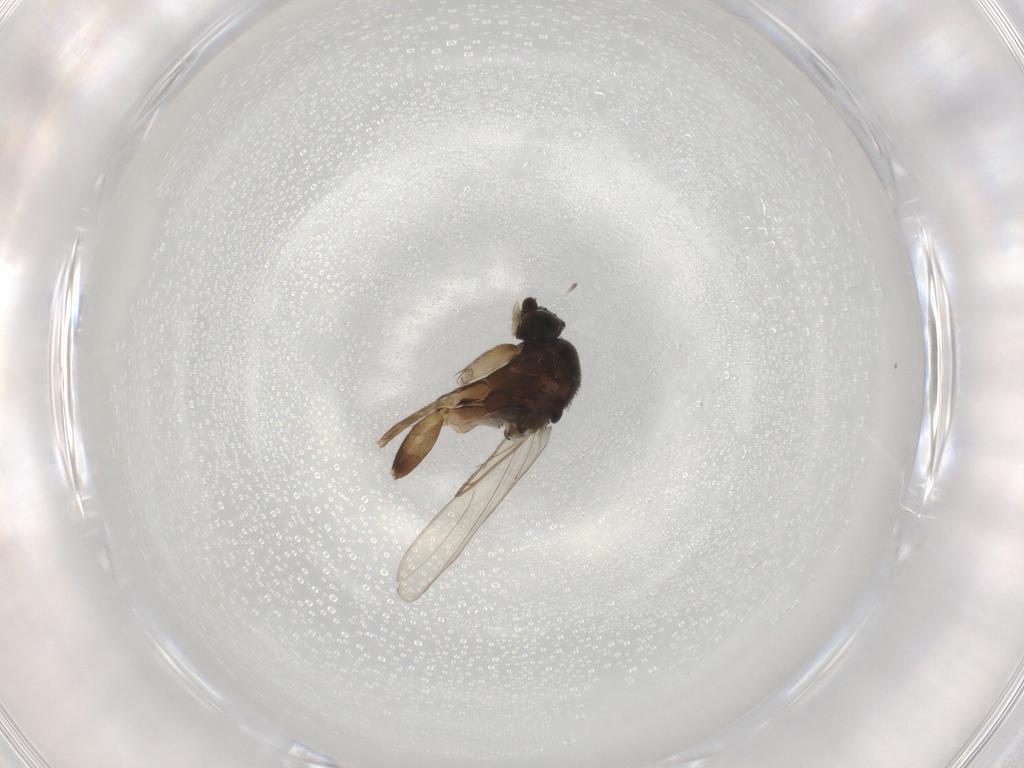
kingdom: Animalia
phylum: Arthropoda
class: Insecta
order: Diptera
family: Phoridae
